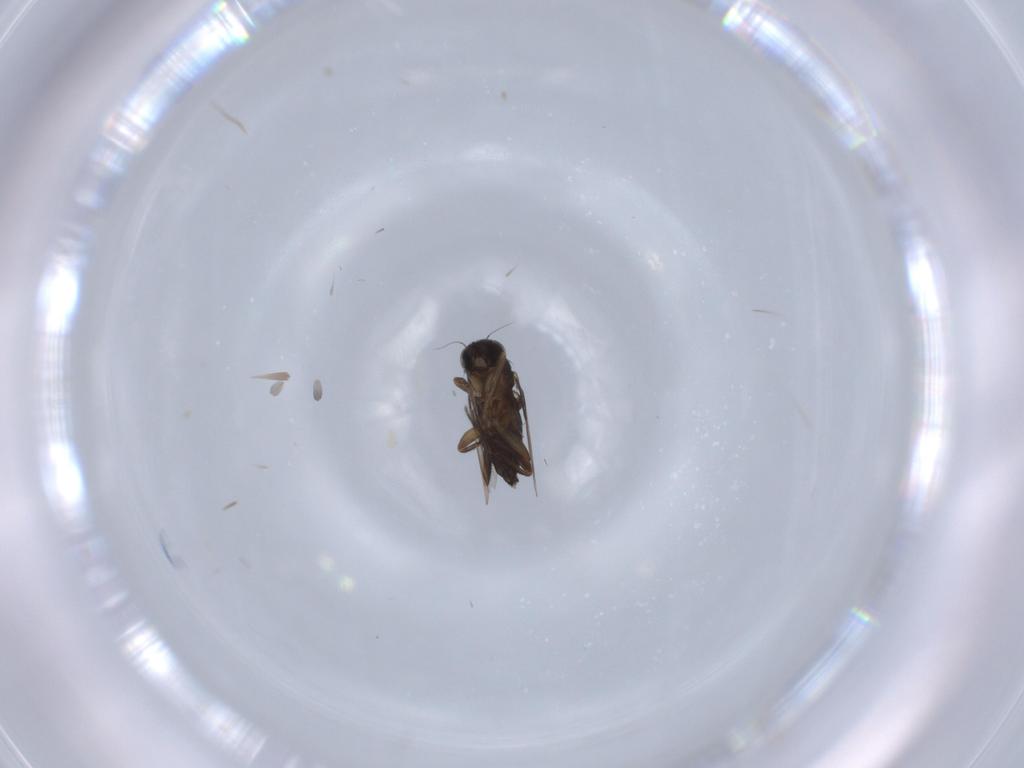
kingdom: Animalia
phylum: Arthropoda
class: Insecta
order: Diptera
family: Phoridae
